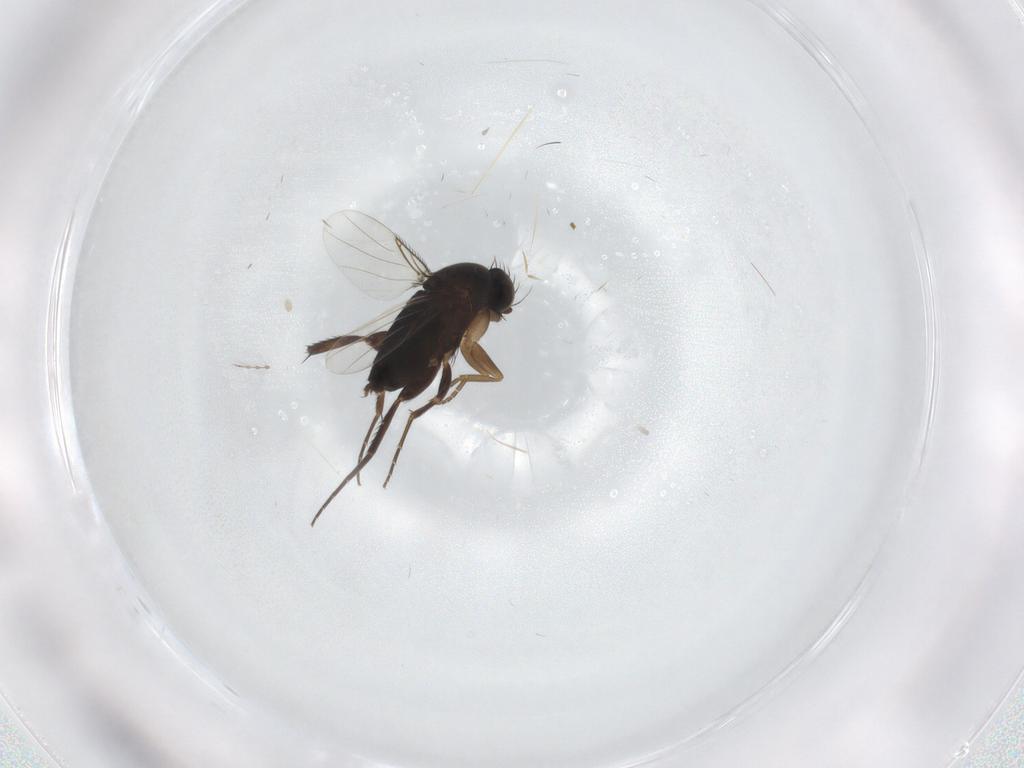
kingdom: Animalia
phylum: Arthropoda
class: Insecta
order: Diptera
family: Phoridae
